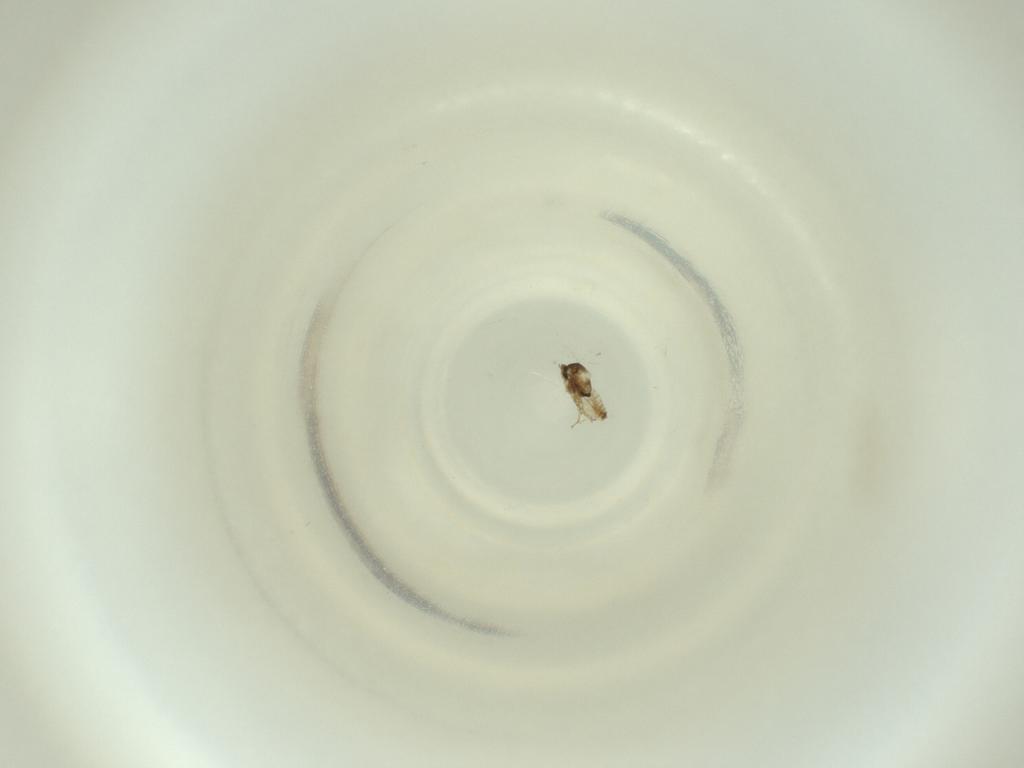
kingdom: Animalia
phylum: Arthropoda
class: Insecta
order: Diptera
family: Cecidomyiidae
